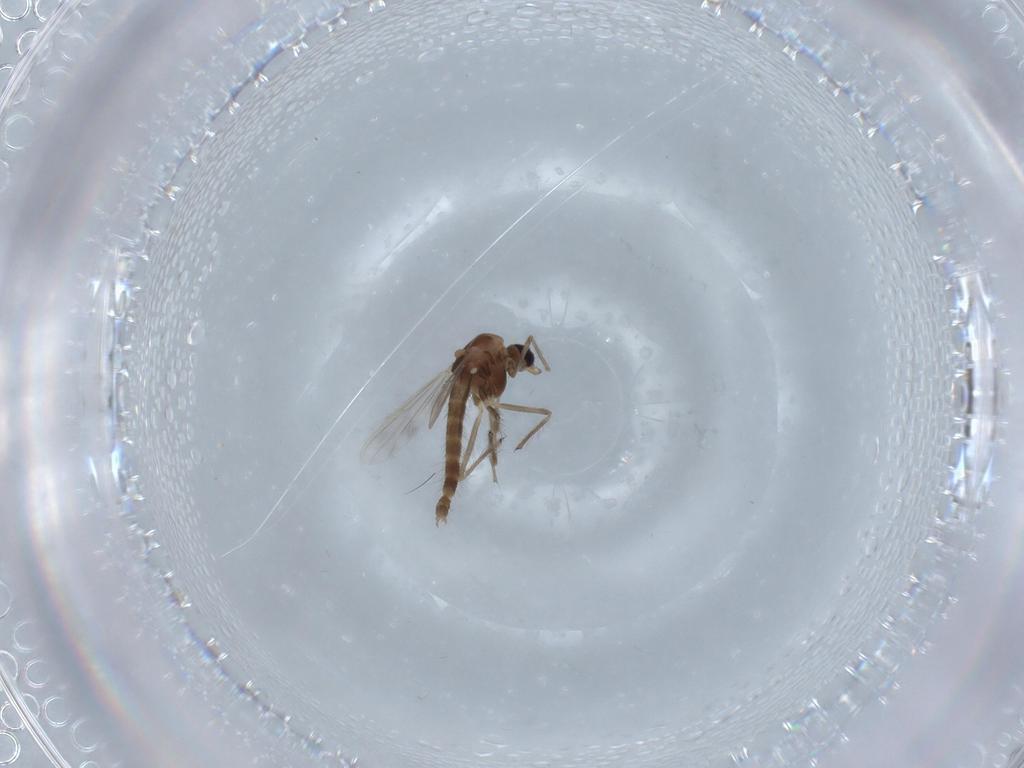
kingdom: Animalia
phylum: Arthropoda
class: Insecta
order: Diptera
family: Chironomidae
